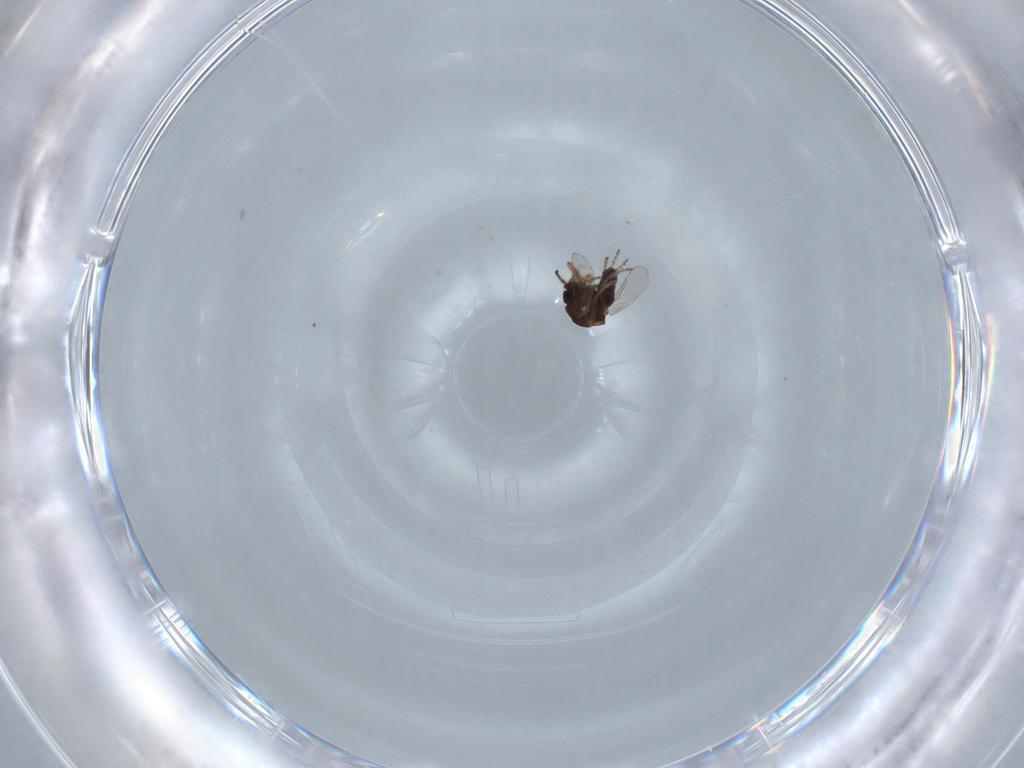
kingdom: Animalia
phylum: Arthropoda
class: Insecta
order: Diptera
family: Ceratopogonidae
